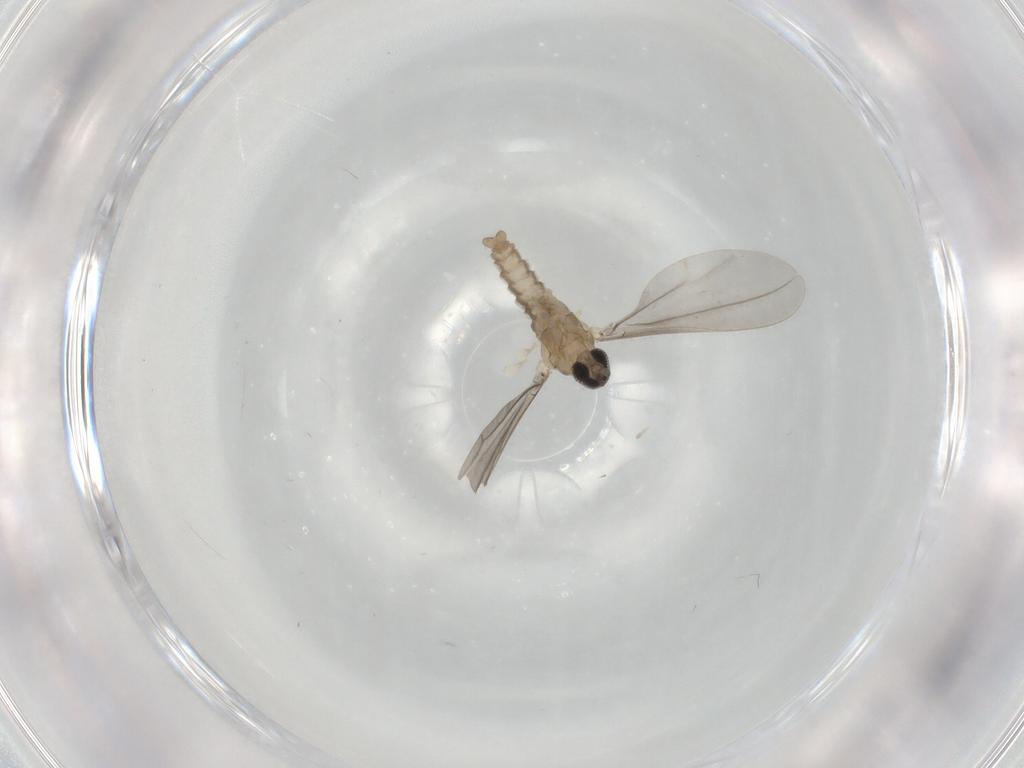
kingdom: Animalia
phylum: Arthropoda
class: Insecta
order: Diptera
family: Cecidomyiidae
